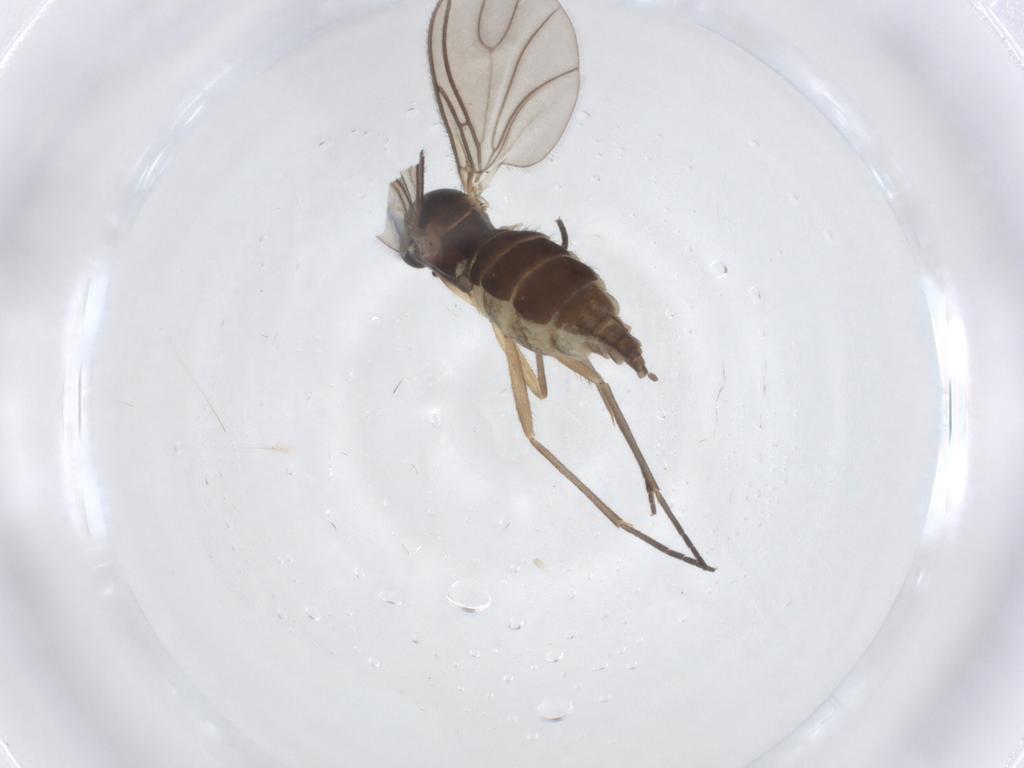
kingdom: Animalia
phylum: Arthropoda
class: Insecta
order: Diptera
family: Sciaridae
